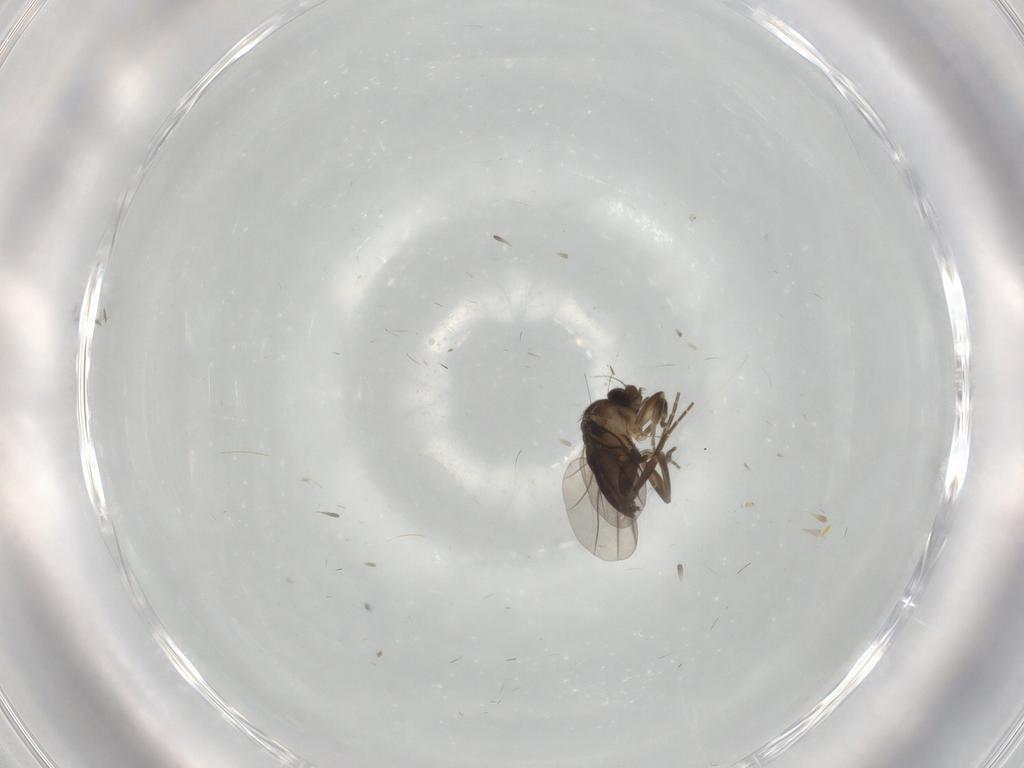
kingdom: Animalia
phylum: Arthropoda
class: Insecta
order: Diptera
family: Phoridae
